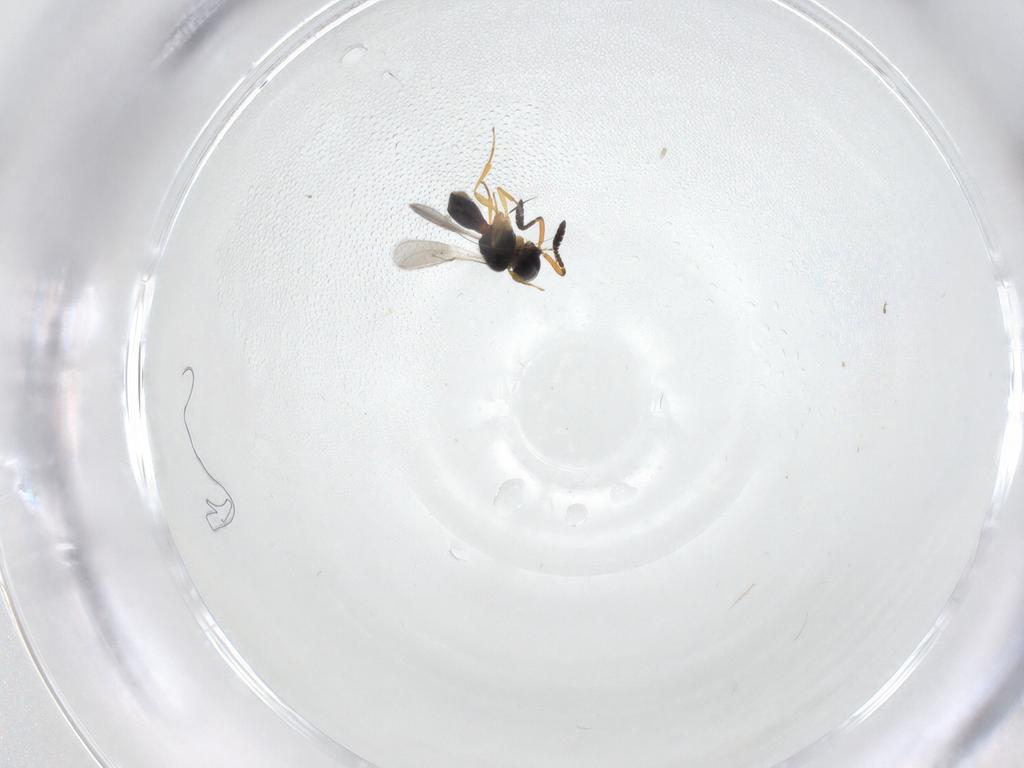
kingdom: Animalia
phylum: Arthropoda
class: Insecta
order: Hymenoptera
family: Scelionidae
